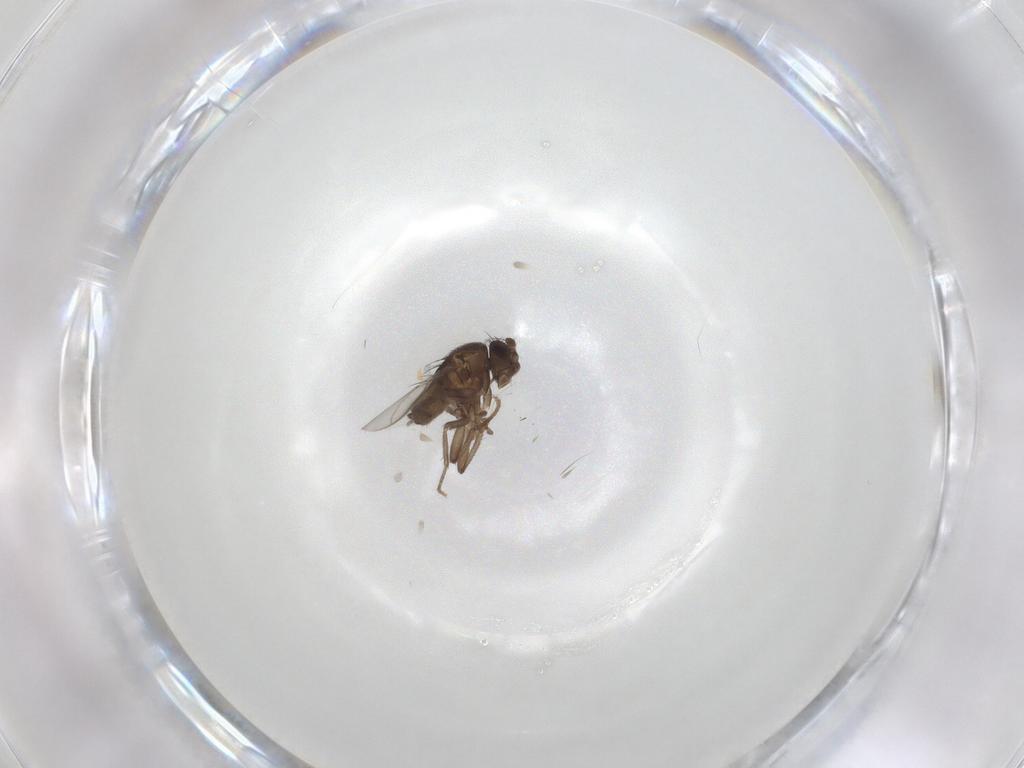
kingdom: Animalia
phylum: Arthropoda
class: Insecta
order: Diptera
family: Sphaeroceridae
